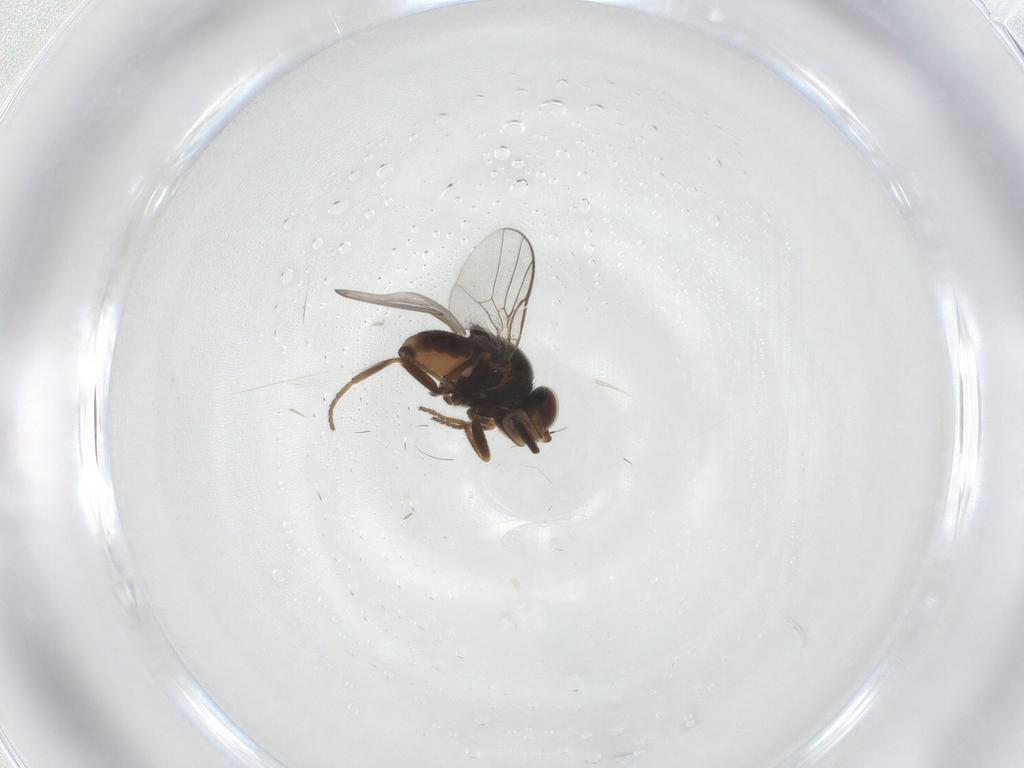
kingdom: Animalia
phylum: Arthropoda
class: Insecta
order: Diptera
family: Chloropidae
